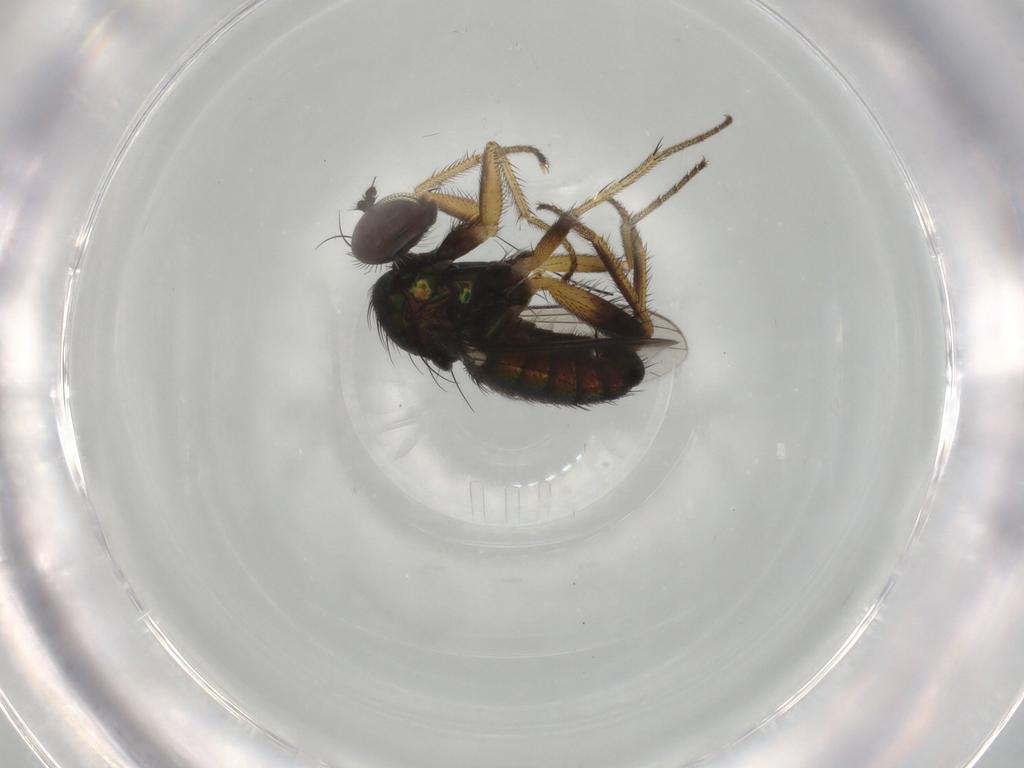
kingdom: Animalia
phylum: Arthropoda
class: Insecta
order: Diptera
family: Dolichopodidae
